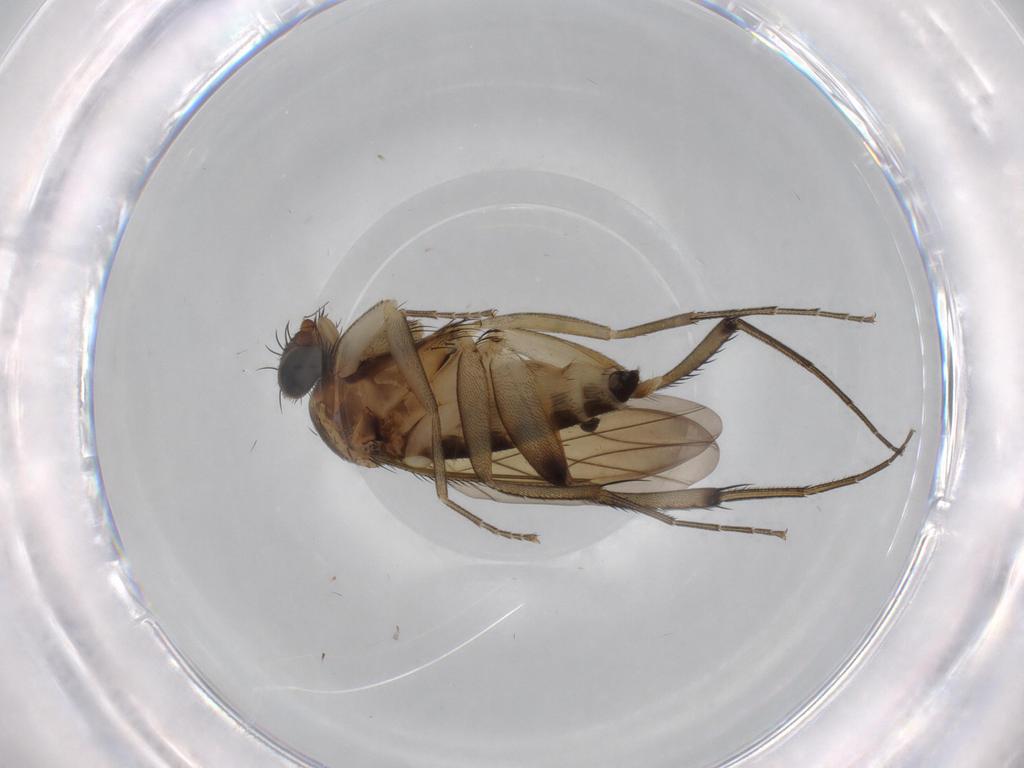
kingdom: Animalia
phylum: Arthropoda
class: Insecta
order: Diptera
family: Phoridae
